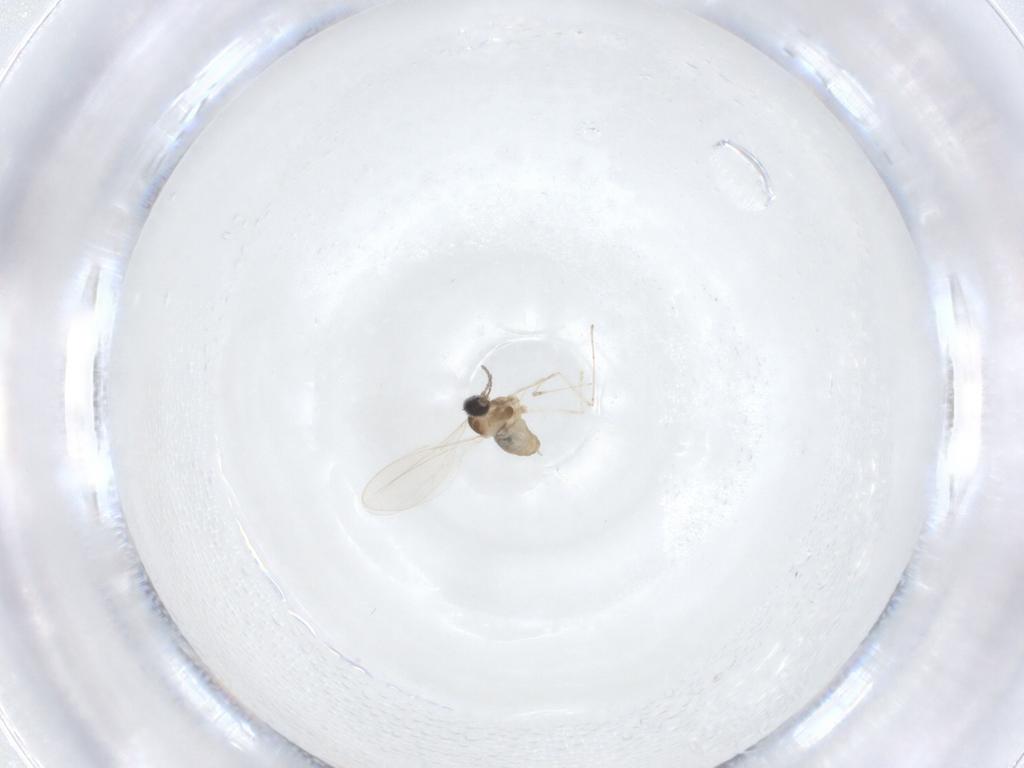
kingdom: Animalia
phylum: Arthropoda
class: Insecta
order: Diptera
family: Cecidomyiidae
